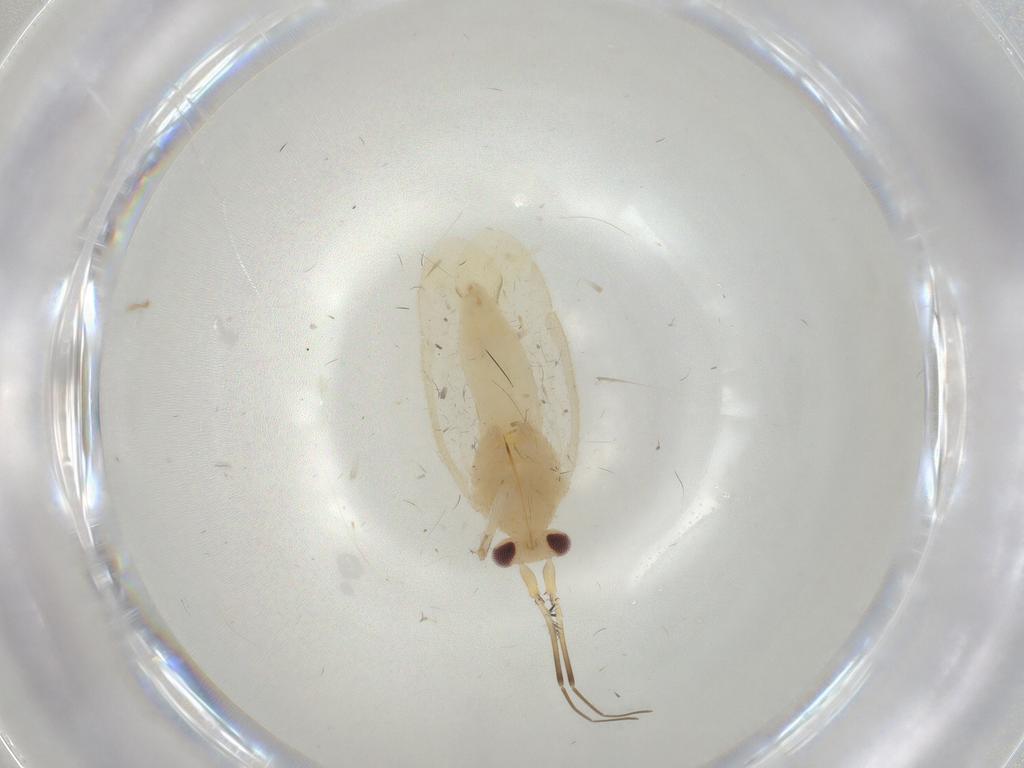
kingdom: Animalia
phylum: Arthropoda
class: Insecta
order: Hemiptera
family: Miridae
